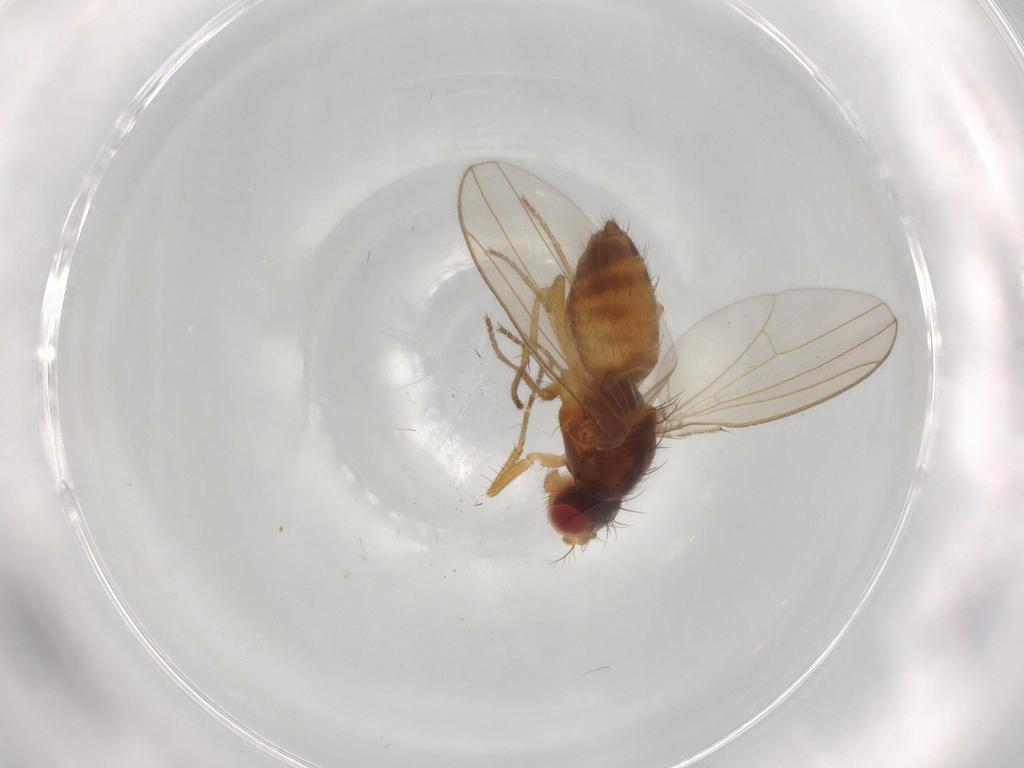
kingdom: Animalia
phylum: Arthropoda
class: Insecta
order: Diptera
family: Drosophilidae
